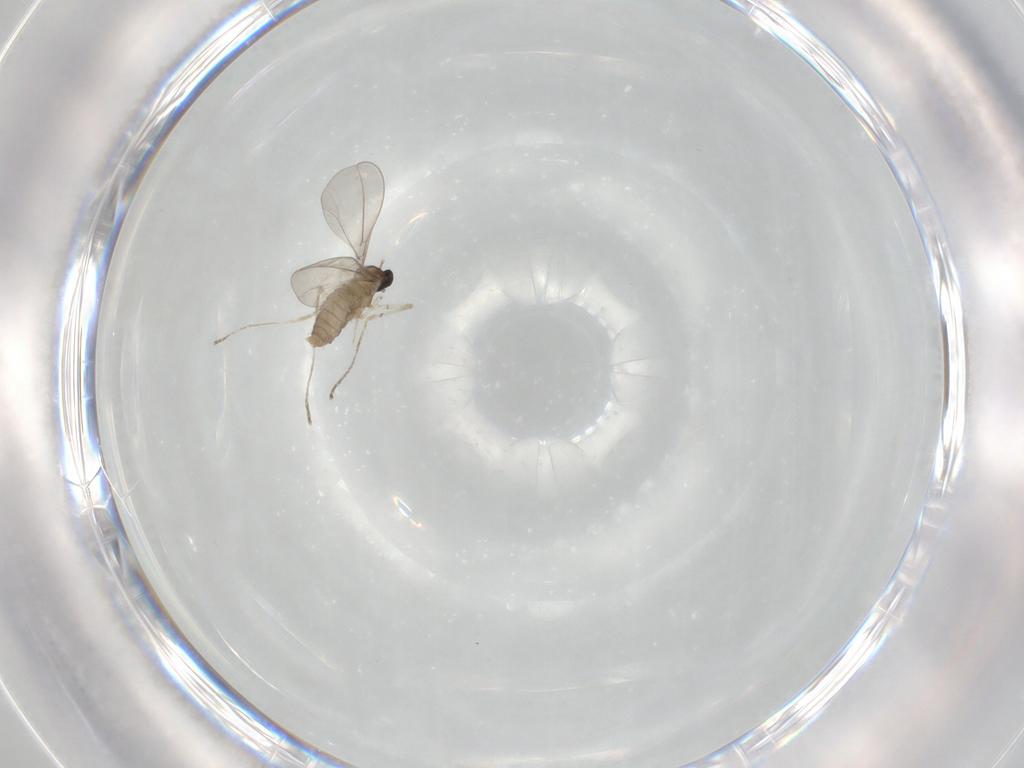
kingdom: Animalia
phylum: Arthropoda
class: Insecta
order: Diptera
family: Cecidomyiidae
